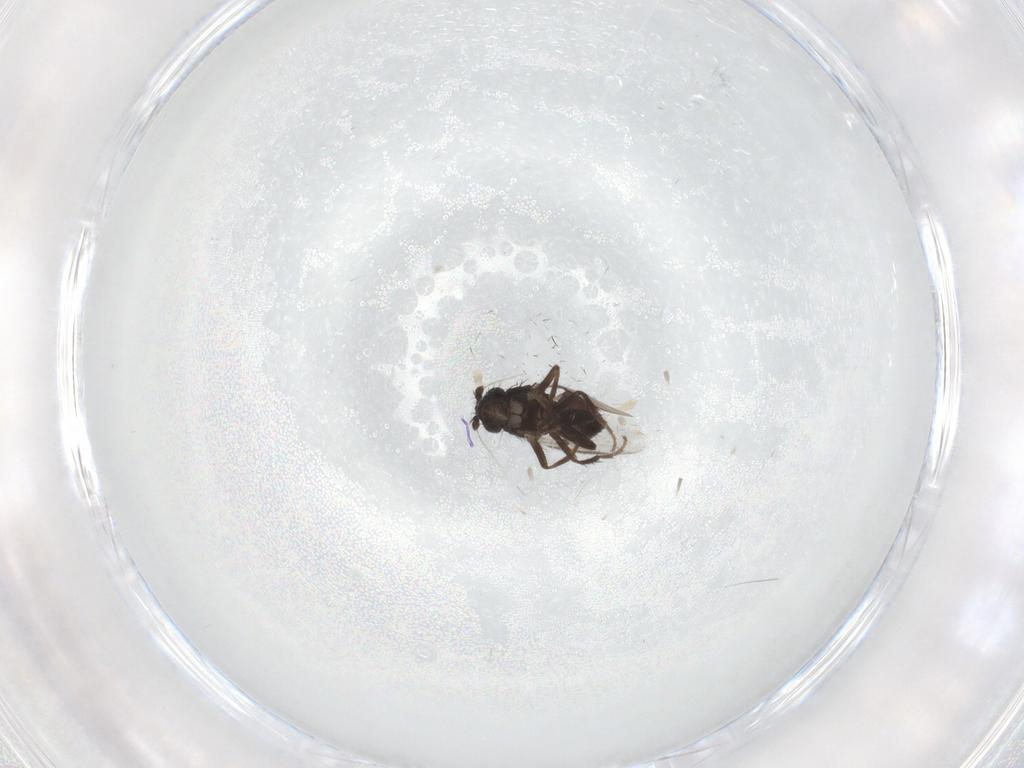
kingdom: Animalia
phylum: Arthropoda
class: Insecta
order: Diptera
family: Sphaeroceridae
